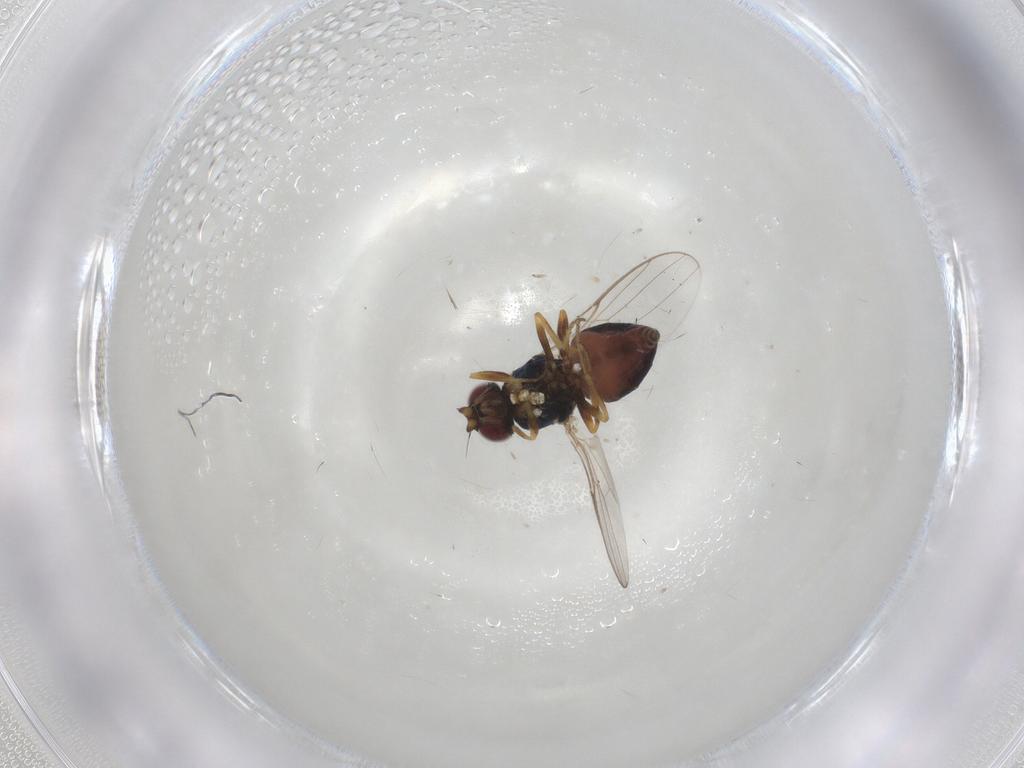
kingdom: Animalia
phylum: Arthropoda
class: Insecta
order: Diptera
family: Chloropidae
